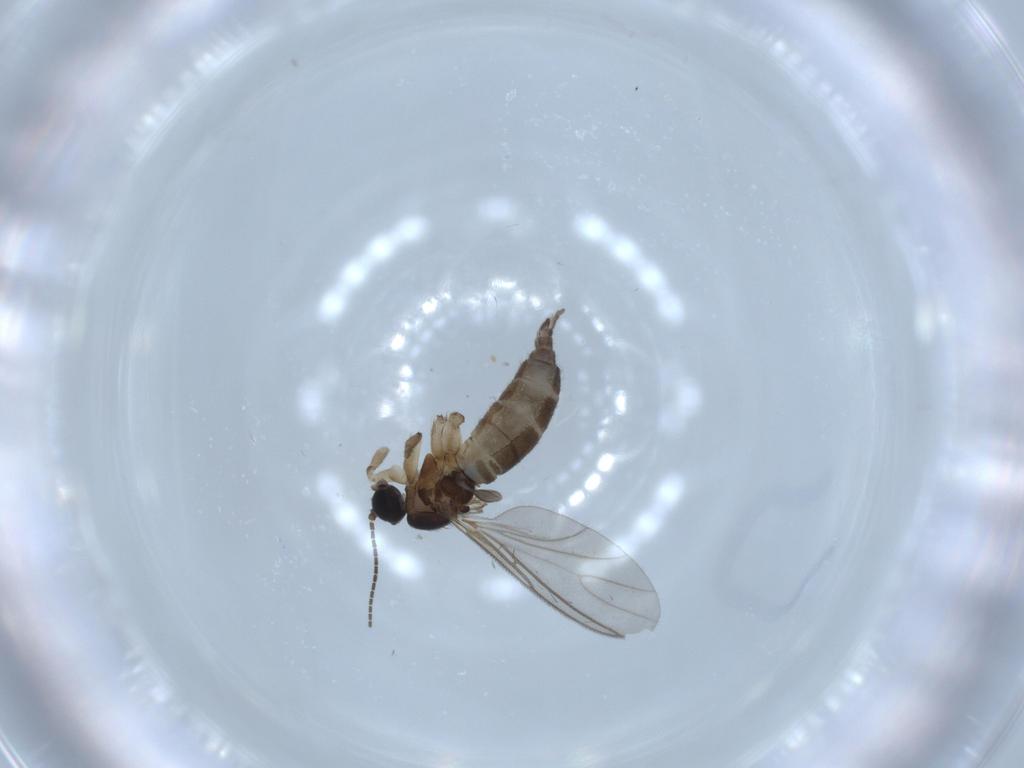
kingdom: Animalia
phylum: Arthropoda
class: Insecta
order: Diptera
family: Sciaridae
